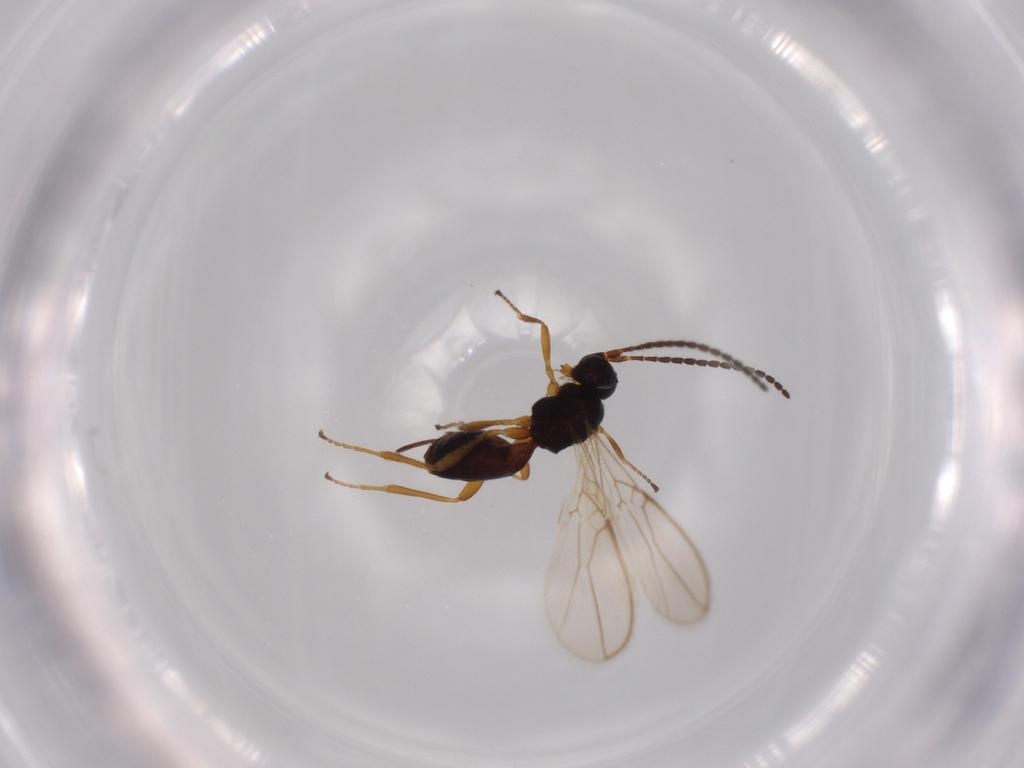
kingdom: Animalia
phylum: Arthropoda
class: Insecta
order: Hymenoptera
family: Braconidae
